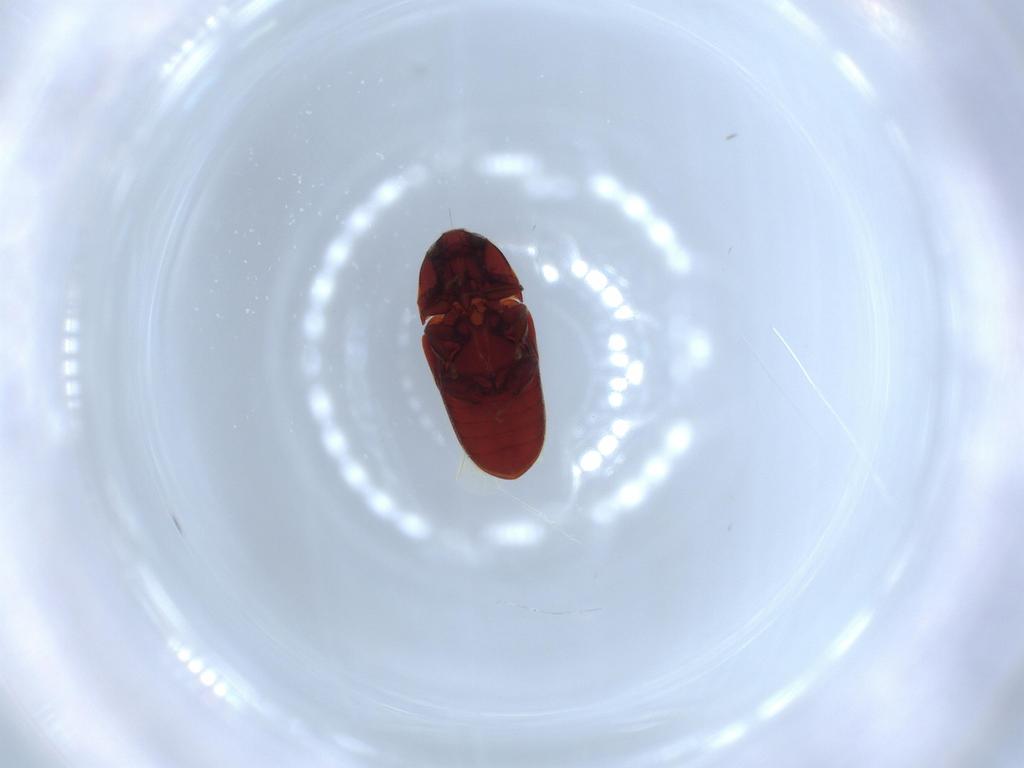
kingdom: Animalia
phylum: Arthropoda
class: Insecta
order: Coleoptera
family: Throscidae
